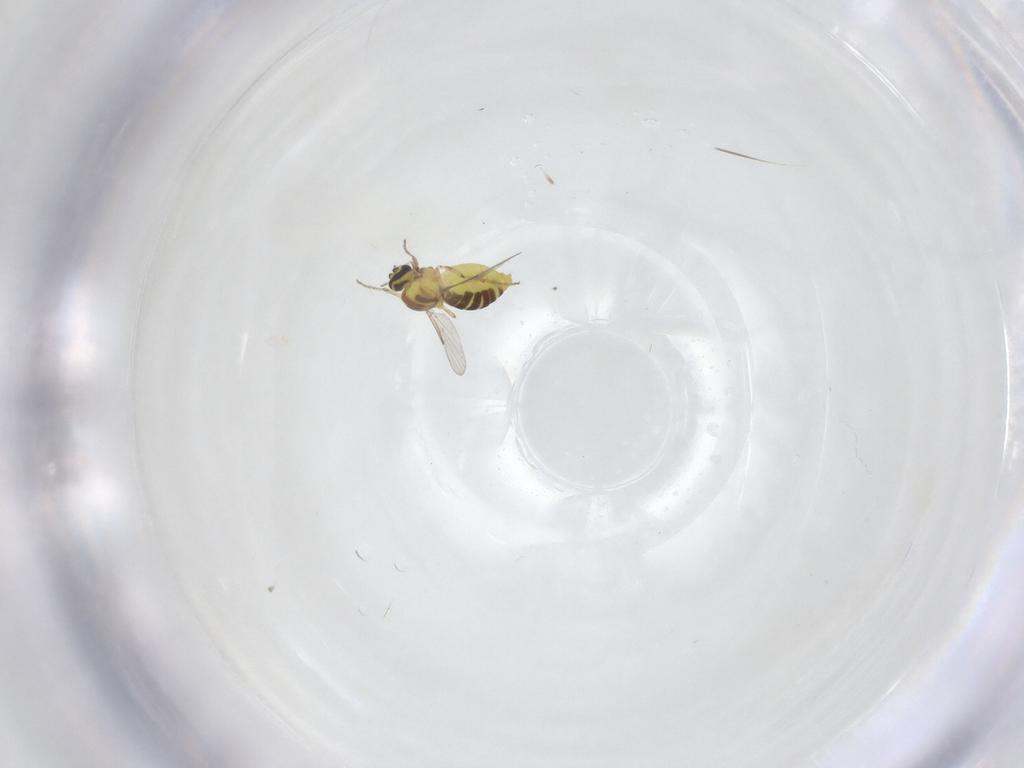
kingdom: Animalia
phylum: Arthropoda
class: Insecta
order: Diptera
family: Ceratopogonidae
